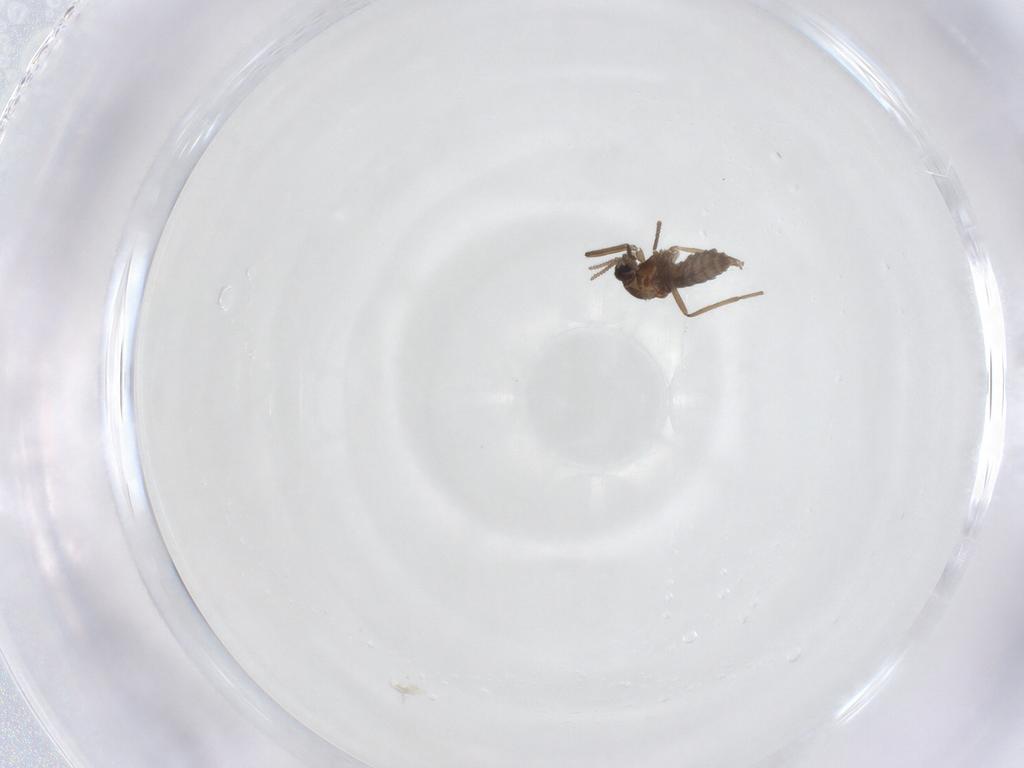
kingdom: Animalia
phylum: Arthropoda
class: Insecta
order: Diptera
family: Cecidomyiidae
